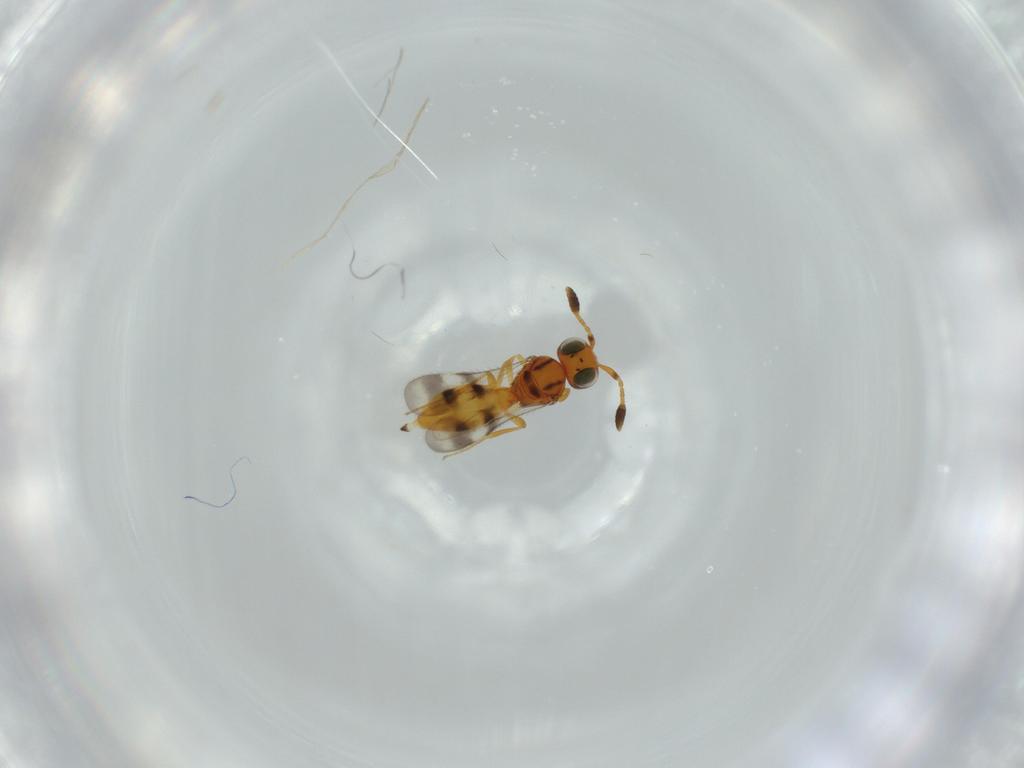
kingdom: Animalia
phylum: Arthropoda
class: Insecta
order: Hymenoptera
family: Scelionidae
